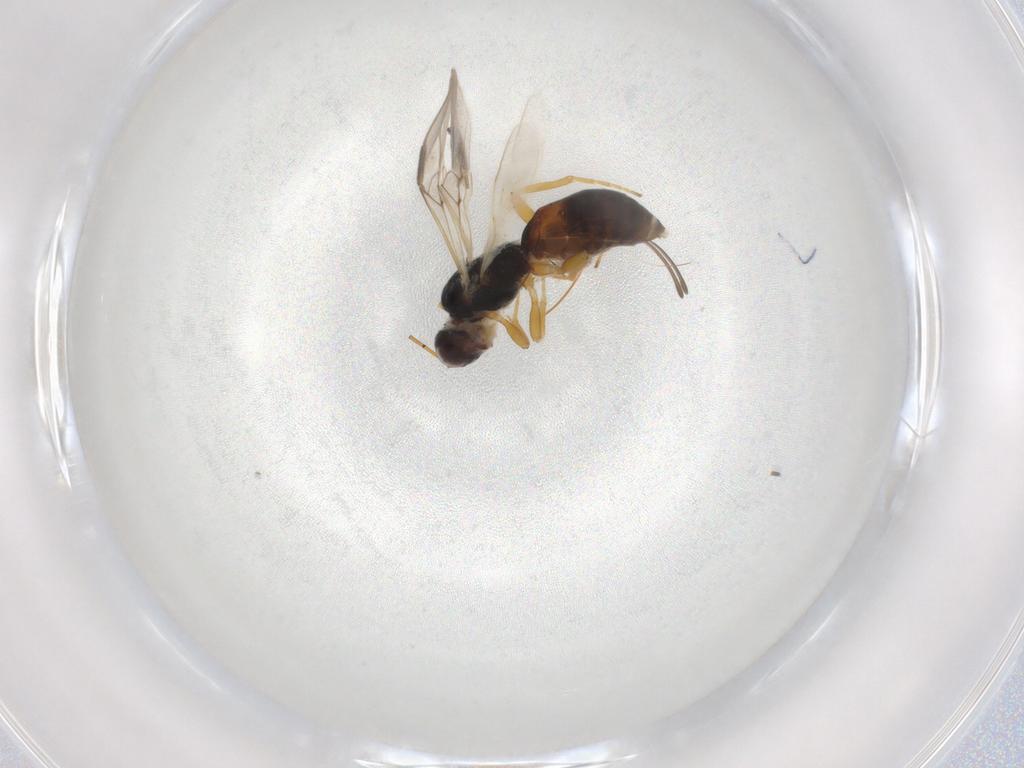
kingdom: Animalia
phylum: Arthropoda
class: Insecta
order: Hymenoptera
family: Braconidae
